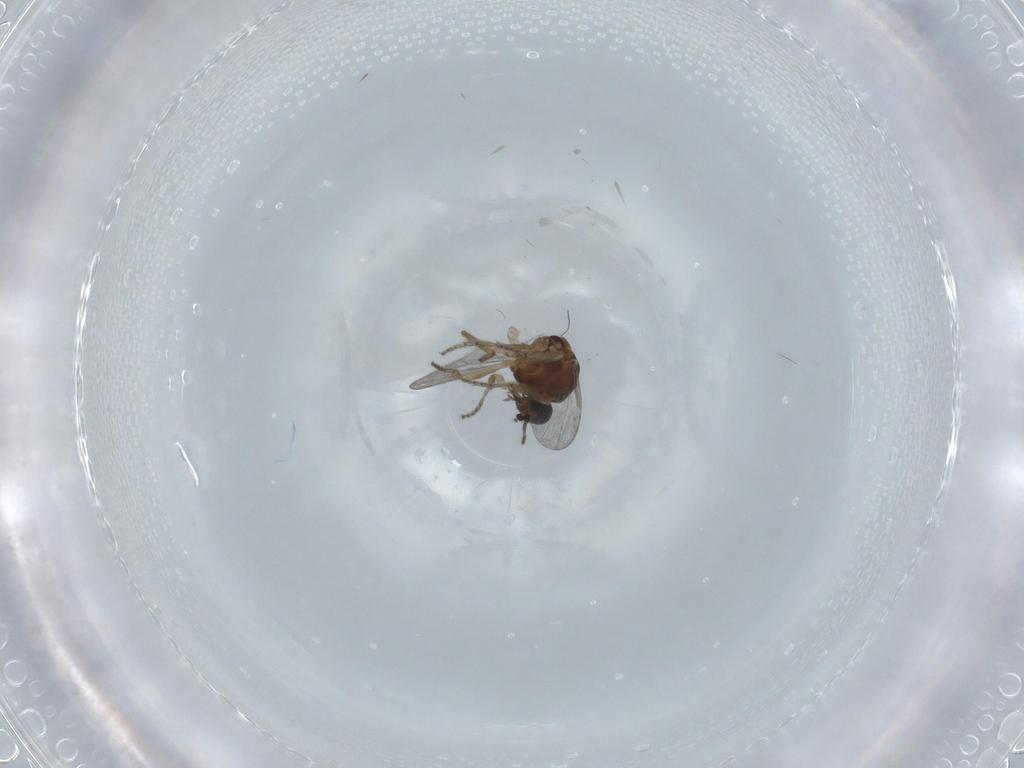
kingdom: Animalia
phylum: Arthropoda
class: Insecta
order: Diptera
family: Ceratopogonidae
